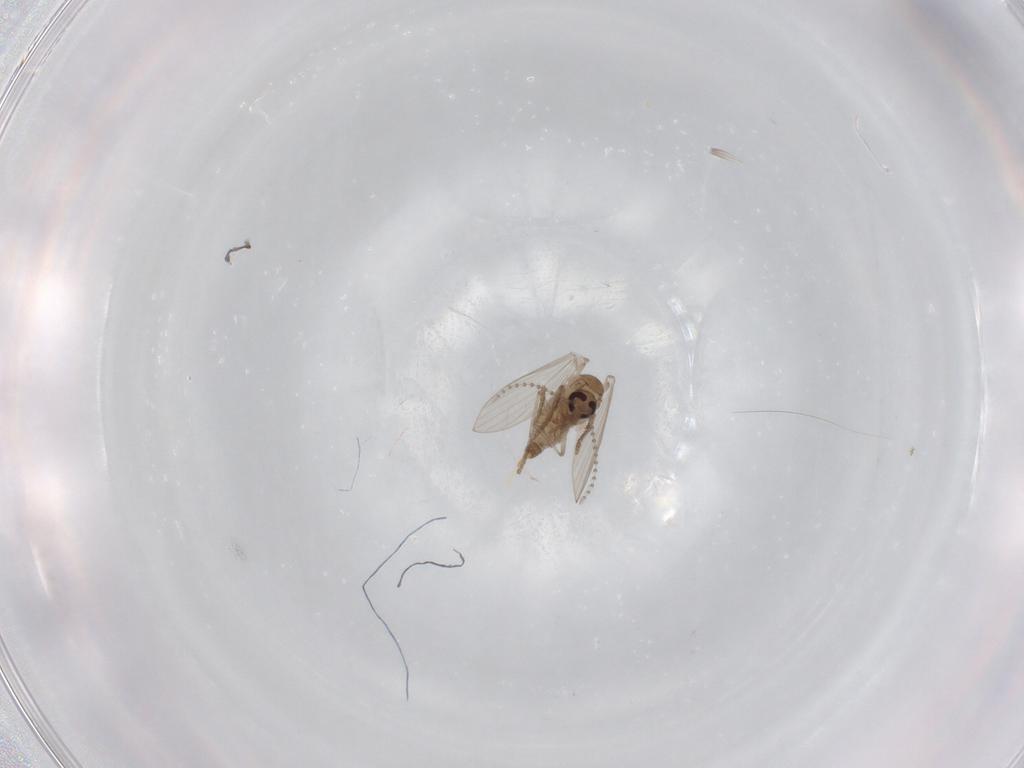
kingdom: Animalia
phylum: Arthropoda
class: Insecta
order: Diptera
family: Psychodidae
